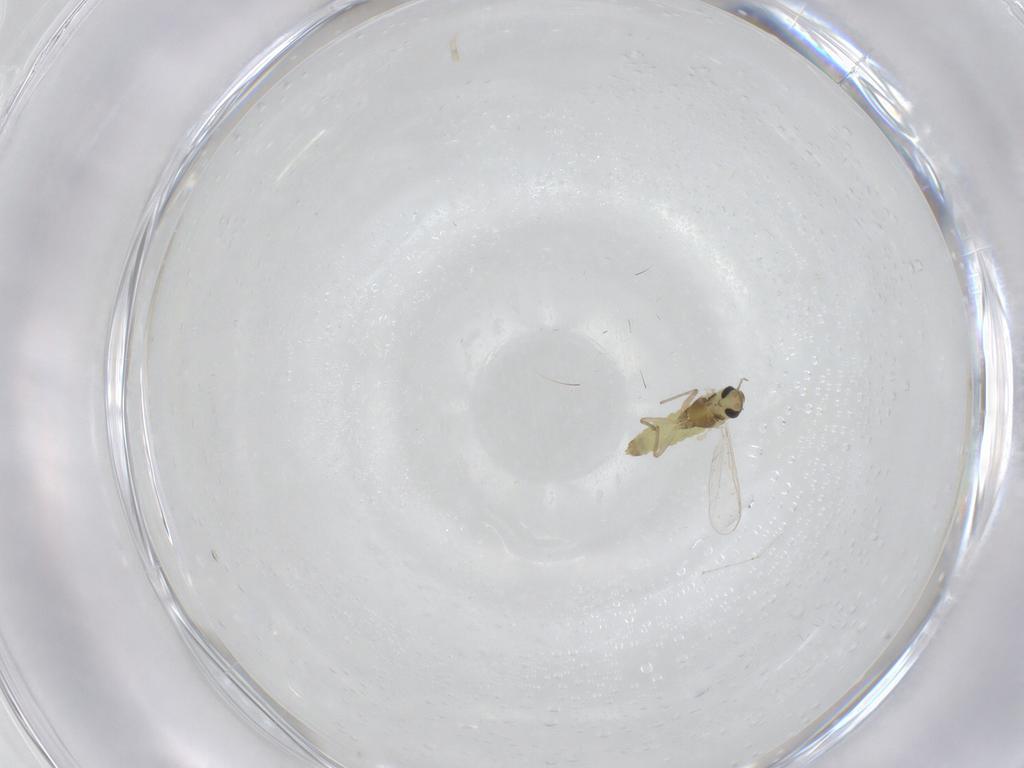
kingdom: Animalia
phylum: Arthropoda
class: Insecta
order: Diptera
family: Chironomidae
